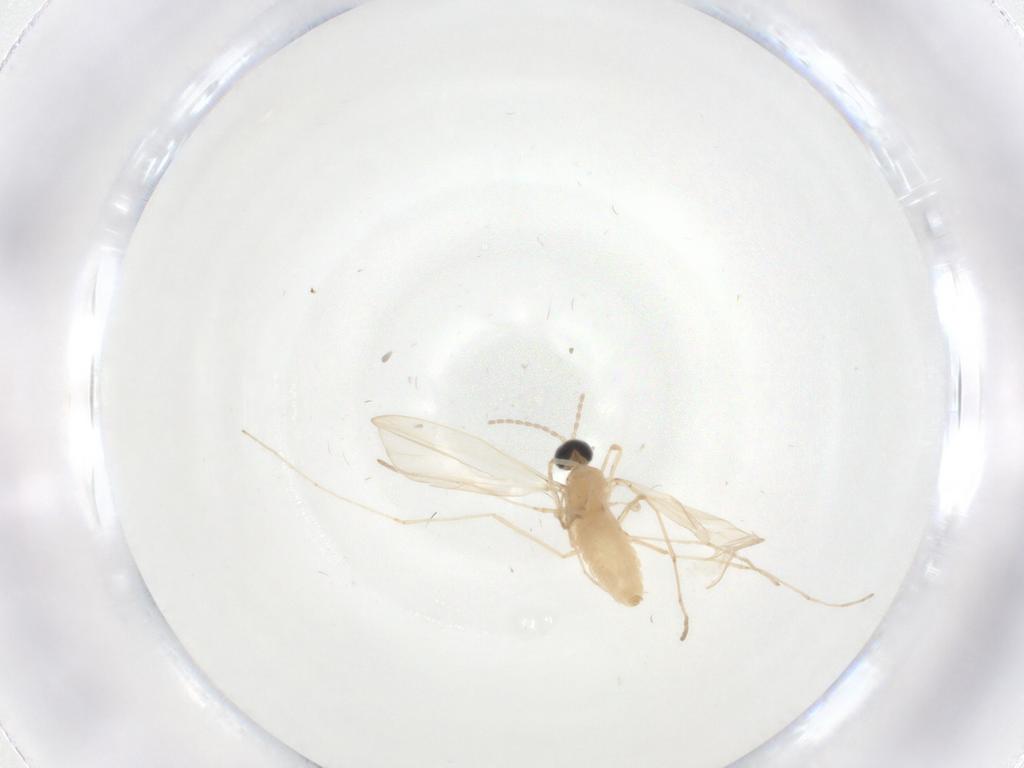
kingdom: Animalia
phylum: Arthropoda
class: Insecta
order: Diptera
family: Cecidomyiidae
